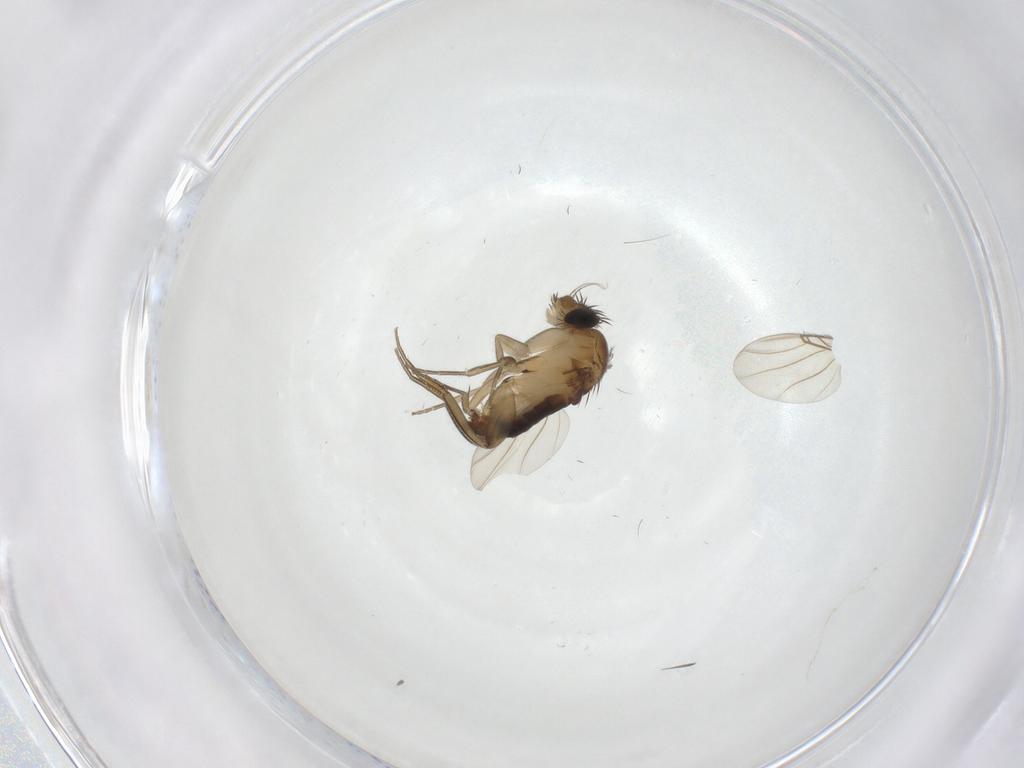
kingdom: Animalia
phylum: Arthropoda
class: Insecta
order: Diptera
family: Phoridae
